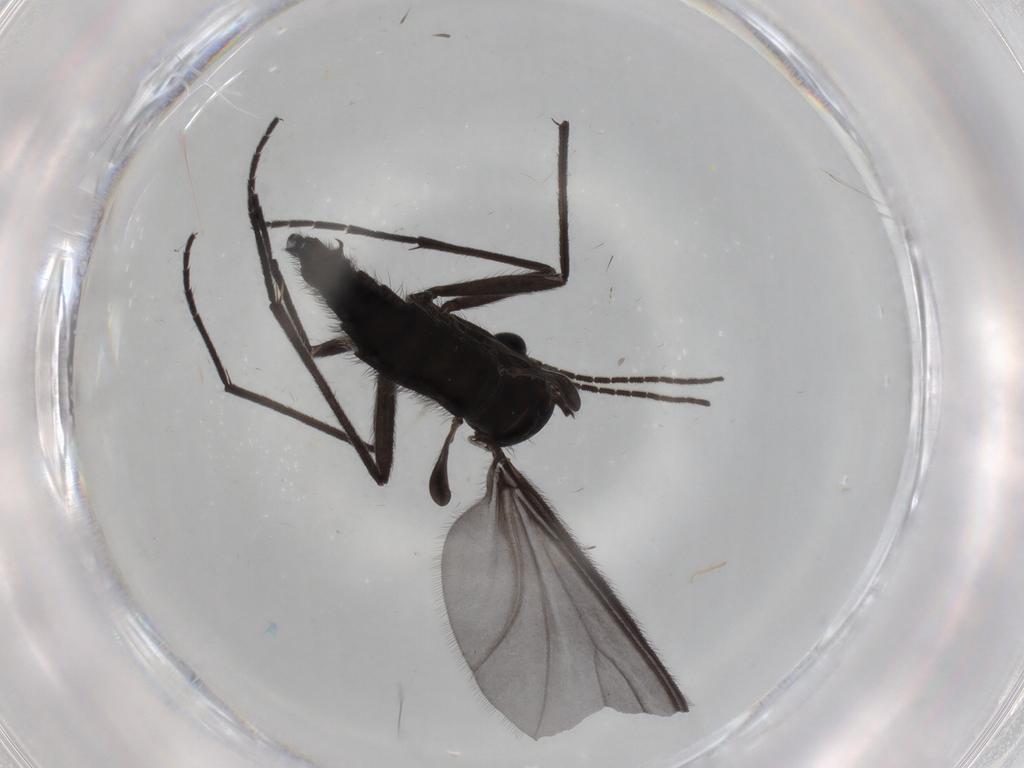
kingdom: Animalia
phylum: Arthropoda
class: Insecta
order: Diptera
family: Sciaridae
